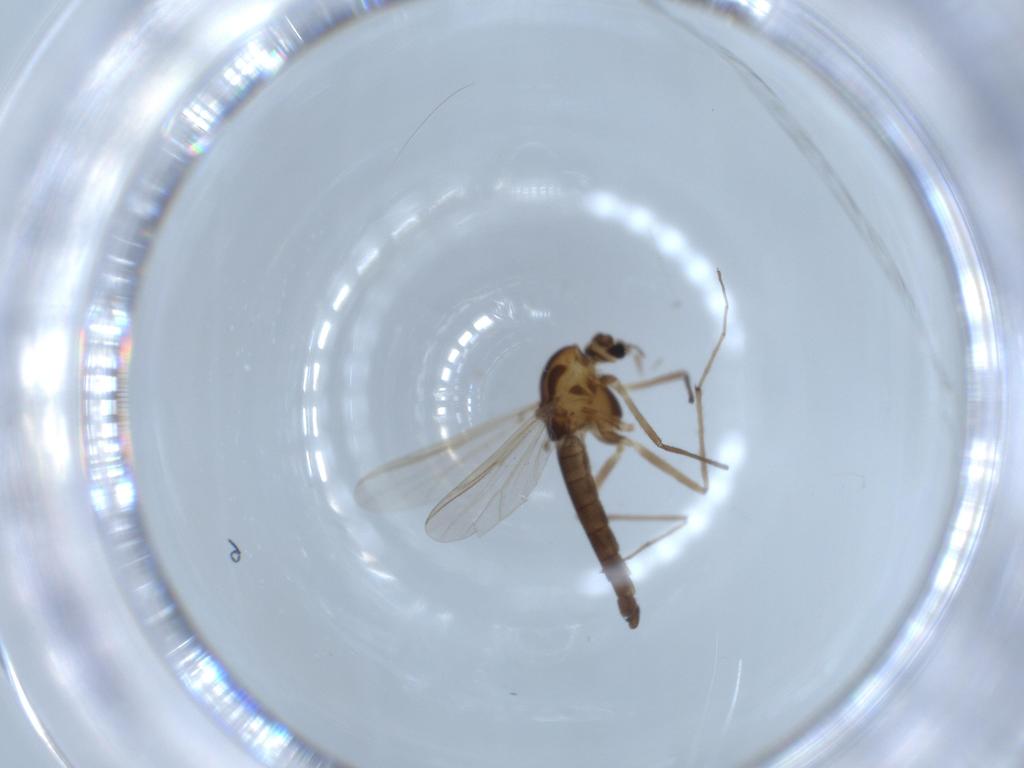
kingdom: Animalia
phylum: Arthropoda
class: Insecta
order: Diptera
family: Chironomidae
